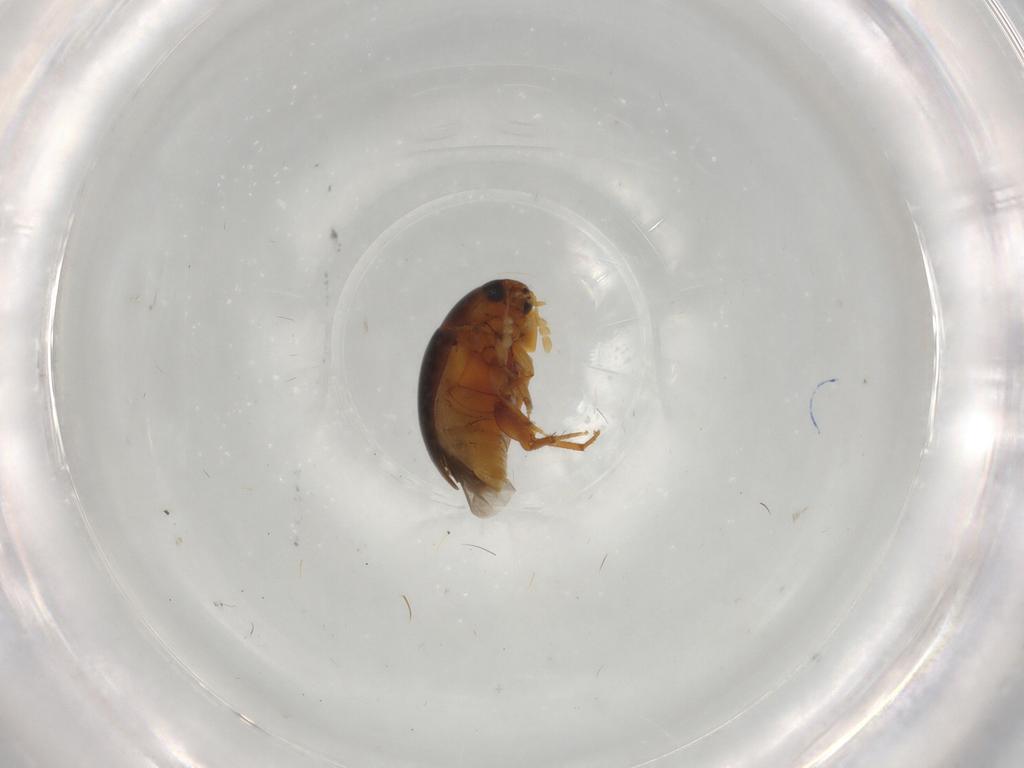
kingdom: Animalia
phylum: Arthropoda
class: Insecta
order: Coleoptera
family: Phalacridae
